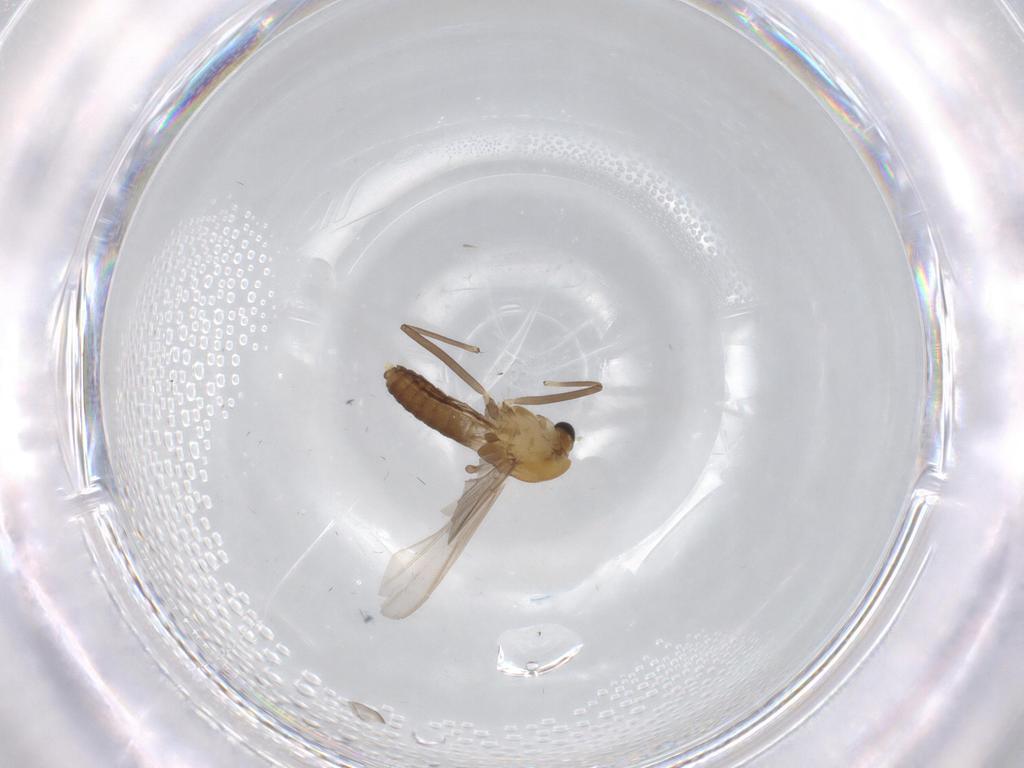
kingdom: Animalia
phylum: Arthropoda
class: Insecta
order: Diptera
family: Chironomidae
